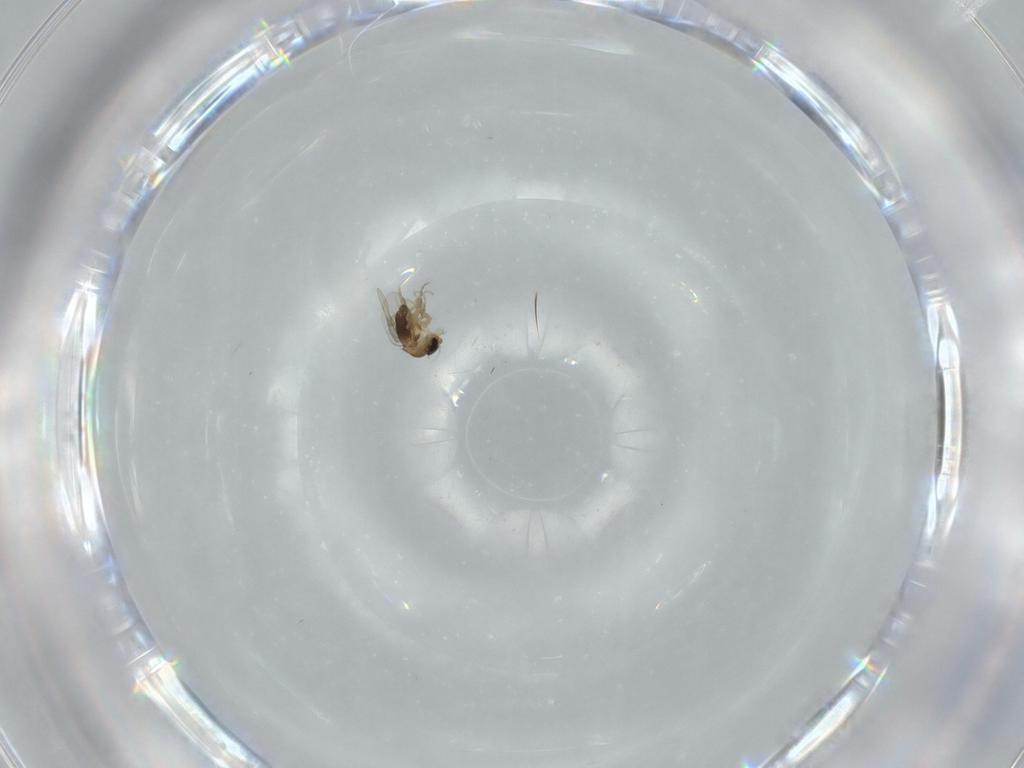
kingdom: Animalia
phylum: Arthropoda
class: Insecta
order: Diptera
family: Phoridae
